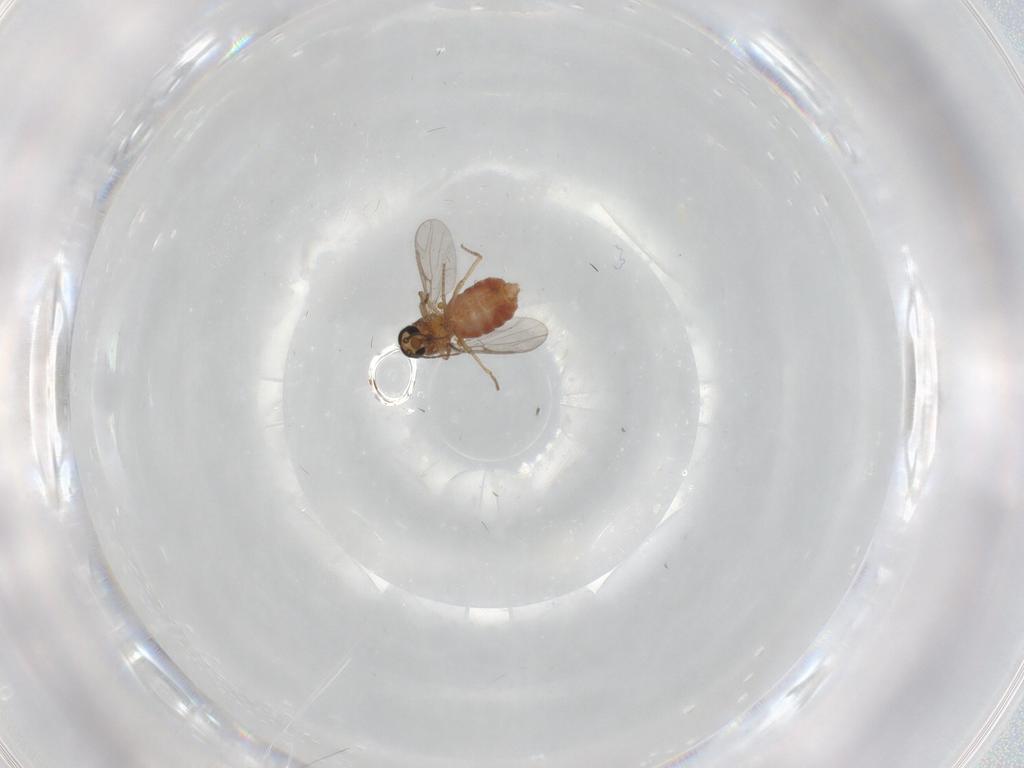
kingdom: Animalia
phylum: Arthropoda
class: Insecta
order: Diptera
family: Ceratopogonidae
